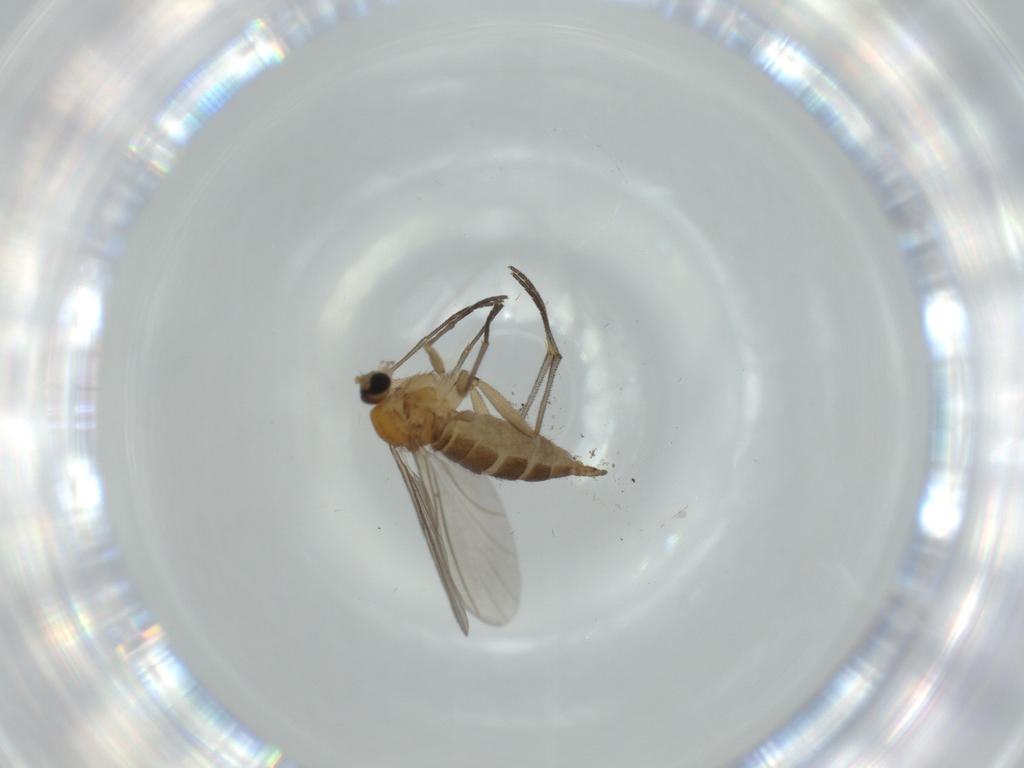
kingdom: Animalia
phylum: Arthropoda
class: Insecta
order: Diptera
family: Sciaridae
